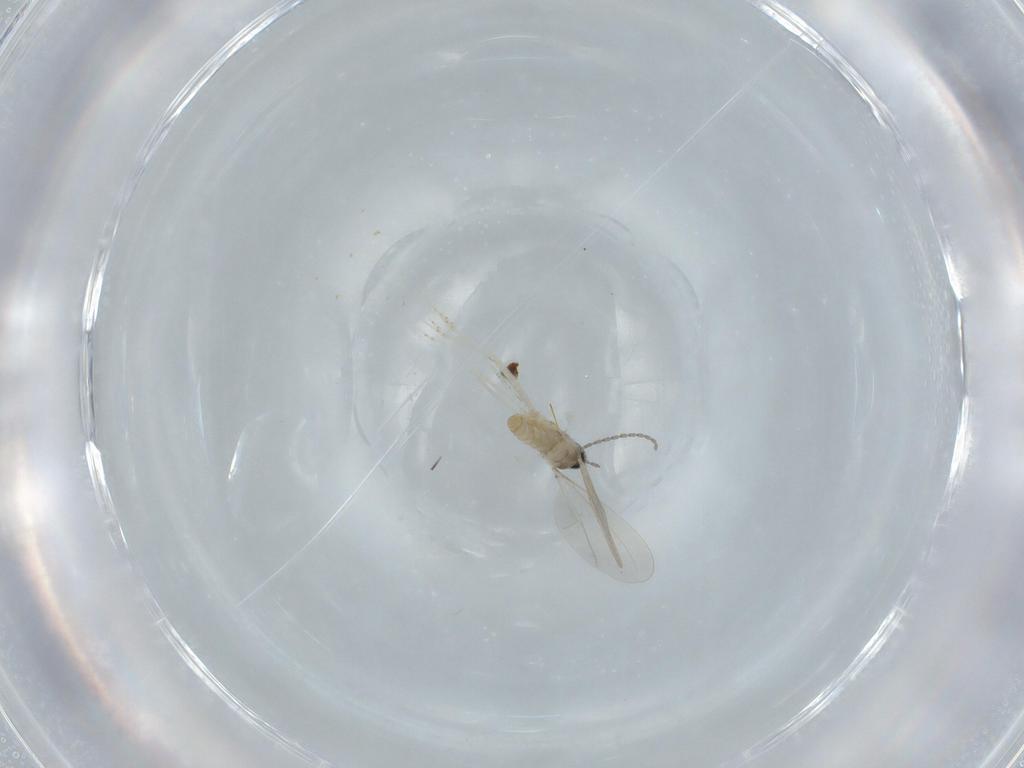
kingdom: Animalia
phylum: Arthropoda
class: Insecta
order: Diptera
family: Cecidomyiidae
